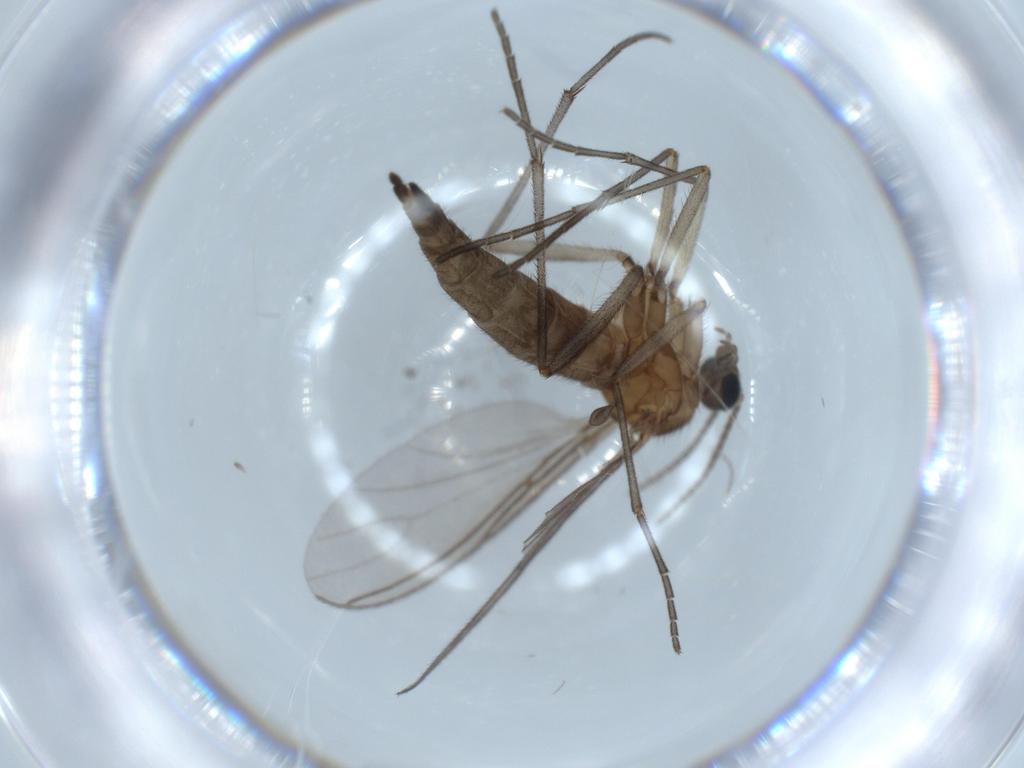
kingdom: Animalia
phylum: Arthropoda
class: Insecta
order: Diptera
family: Sciaridae
